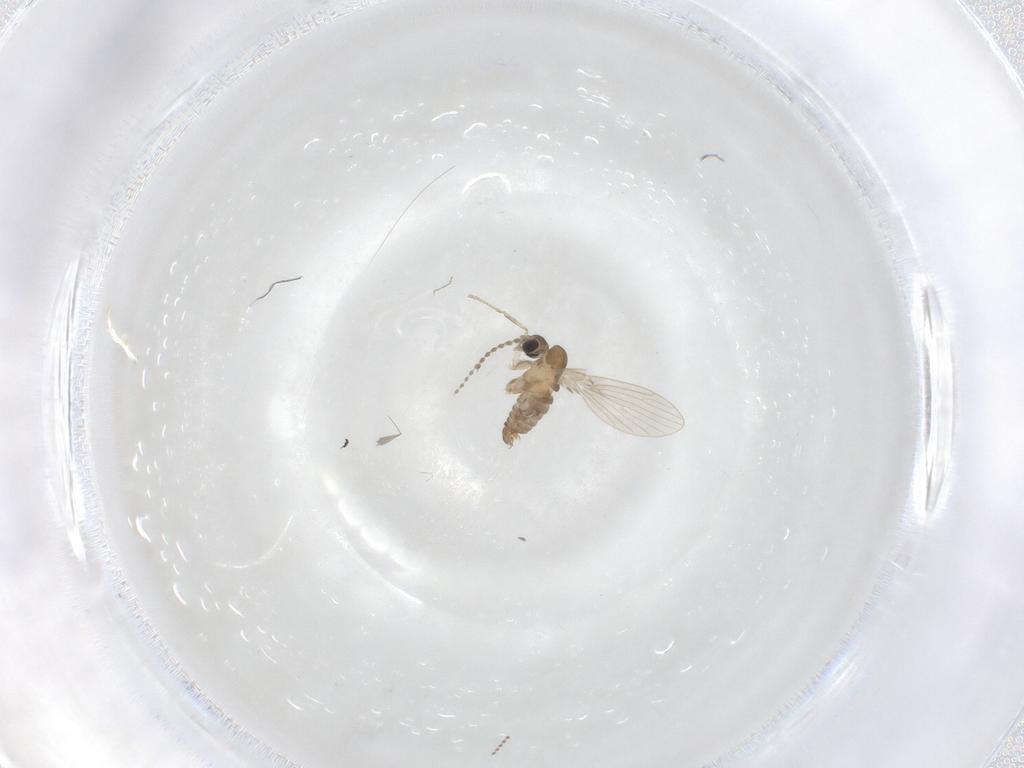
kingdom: Animalia
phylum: Arthropoda
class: Insecta
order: Diptera
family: Psychodidae
